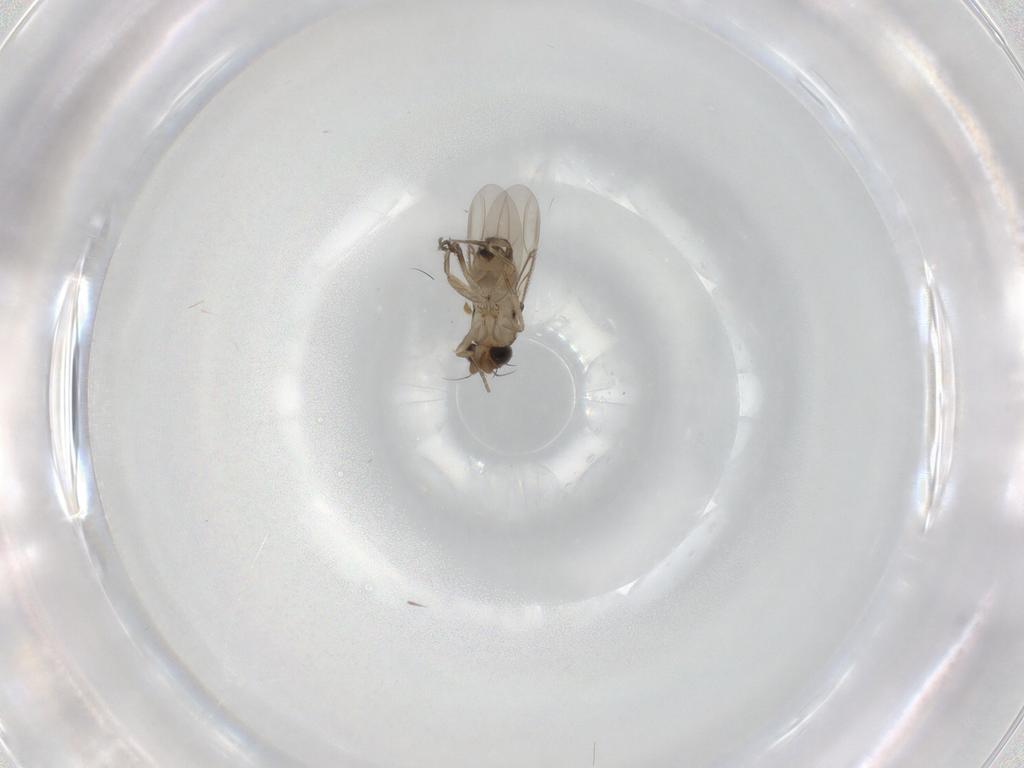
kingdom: Animalia
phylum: Arthropoda
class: Insecta
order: Diptera
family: Phoridae
